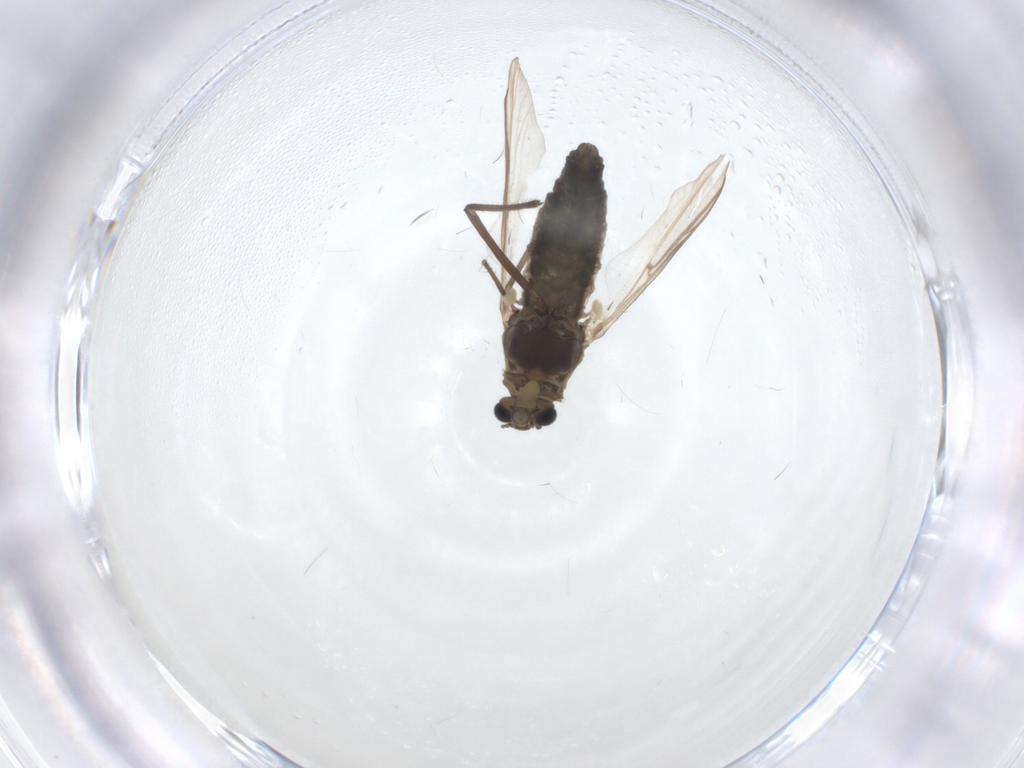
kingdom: Animalia
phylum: Arthropoda
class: Insecta
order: Diptera
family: Chironomidae
